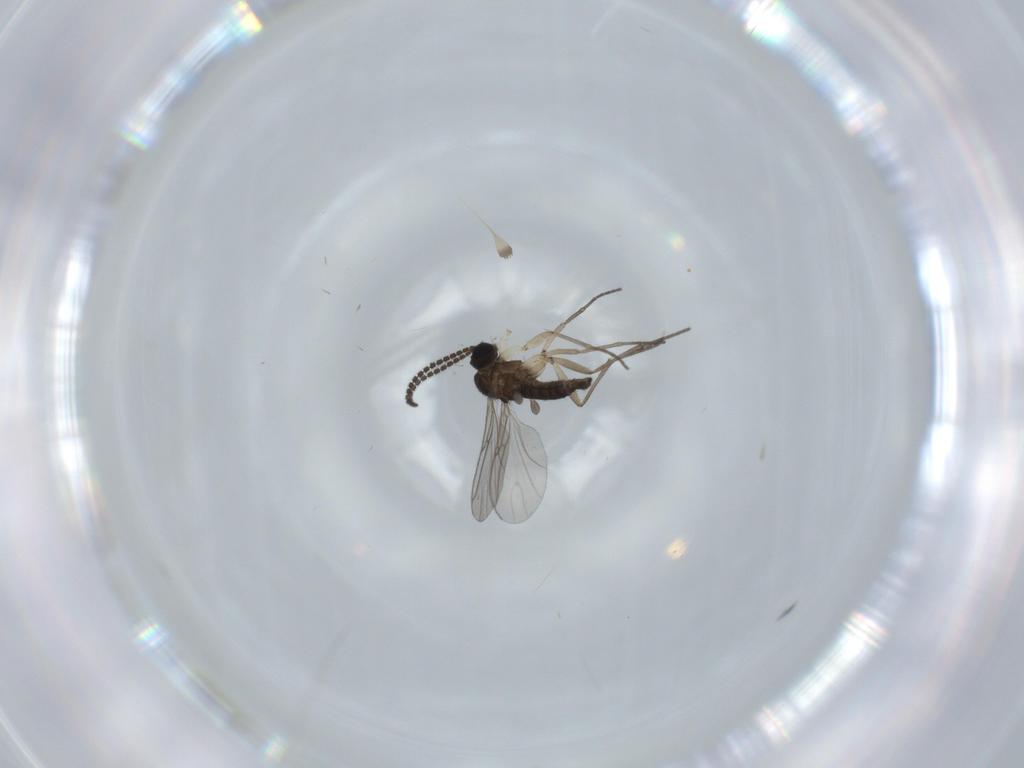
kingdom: Animalia
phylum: Arthropoda
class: Insecta
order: Diptera
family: Sciaridae
